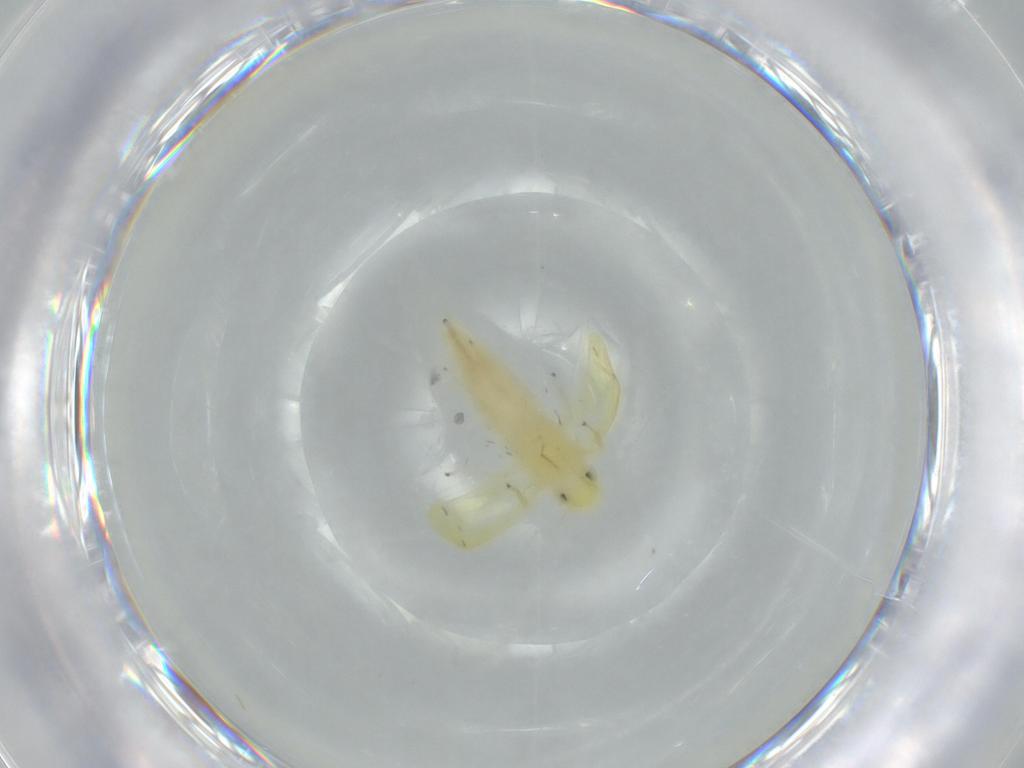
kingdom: Animalia
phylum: Arthropoda
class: Insecta
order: Hemiptera
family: Cicadellidae
